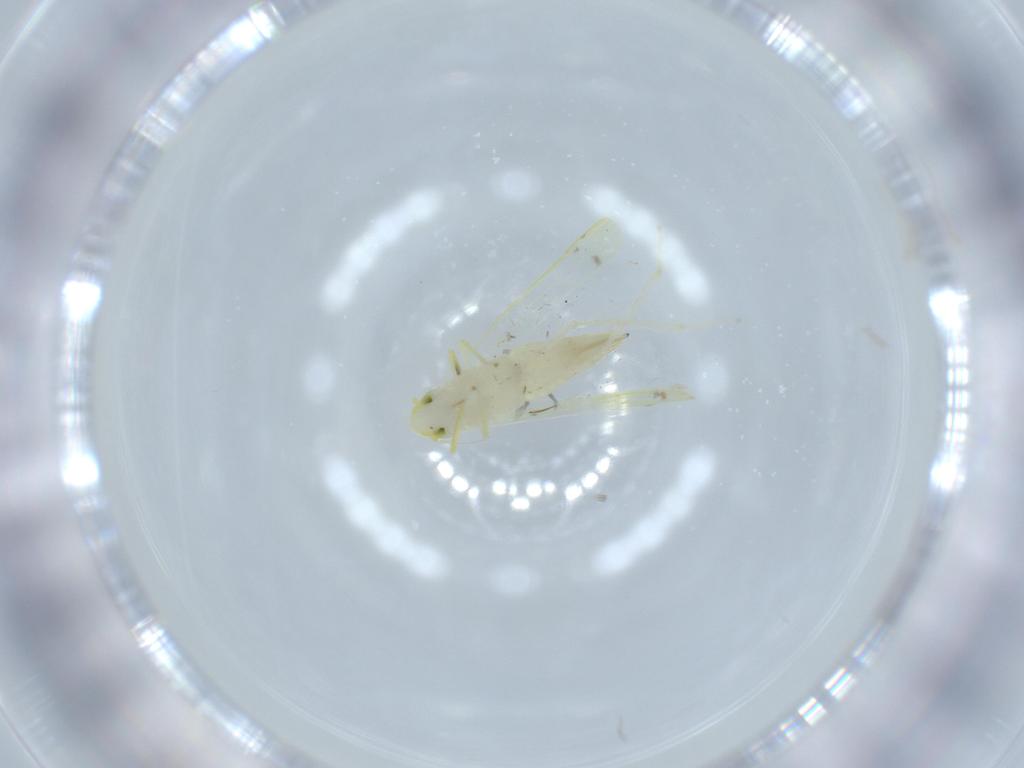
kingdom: Animalia
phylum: Arthropoda
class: Insecta
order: Hemiptera
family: Cicadellidae
